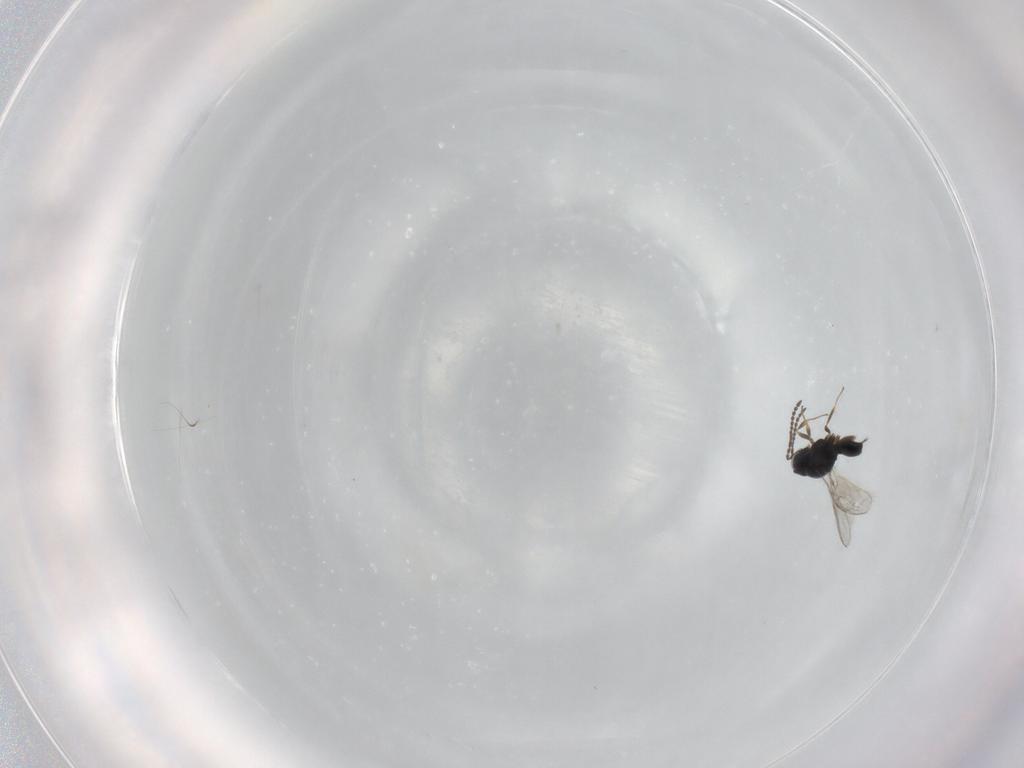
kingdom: Animalia
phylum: Arthropoda
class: Insecta
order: Hymenoptera
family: Scelionidae
